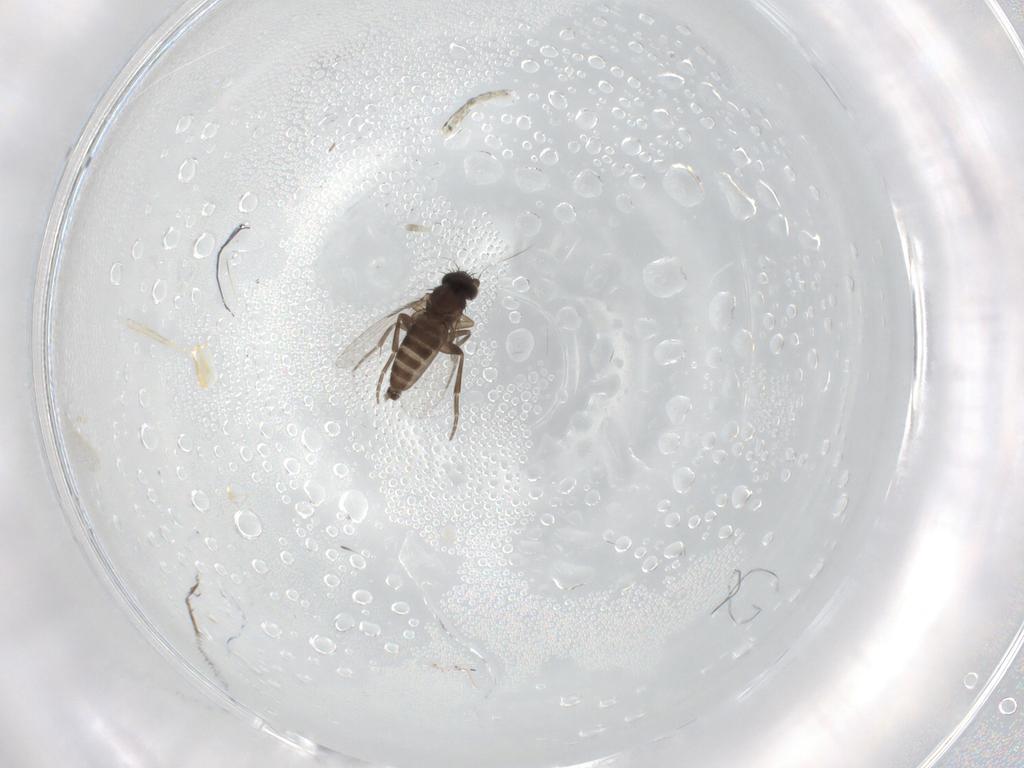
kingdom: Animalia
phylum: Arthropoda
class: Insecta
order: Diptera
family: Phoridae
